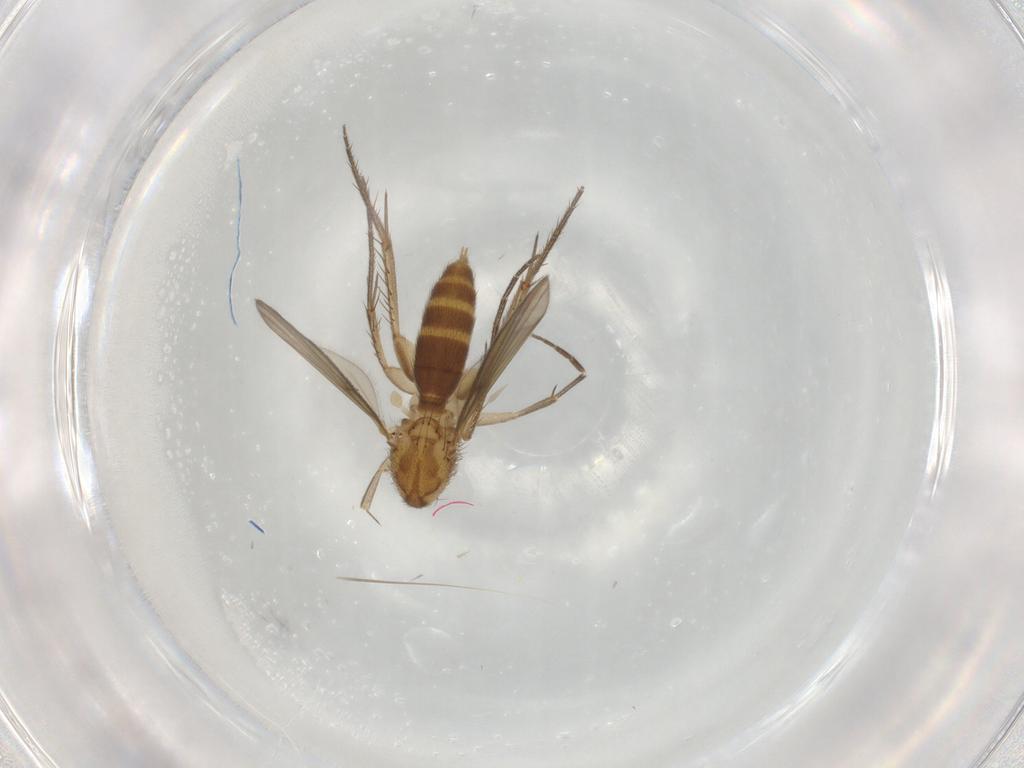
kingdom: Animalia
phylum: Arthropoda
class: Insecta
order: Diptera
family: Mycetophilidae
